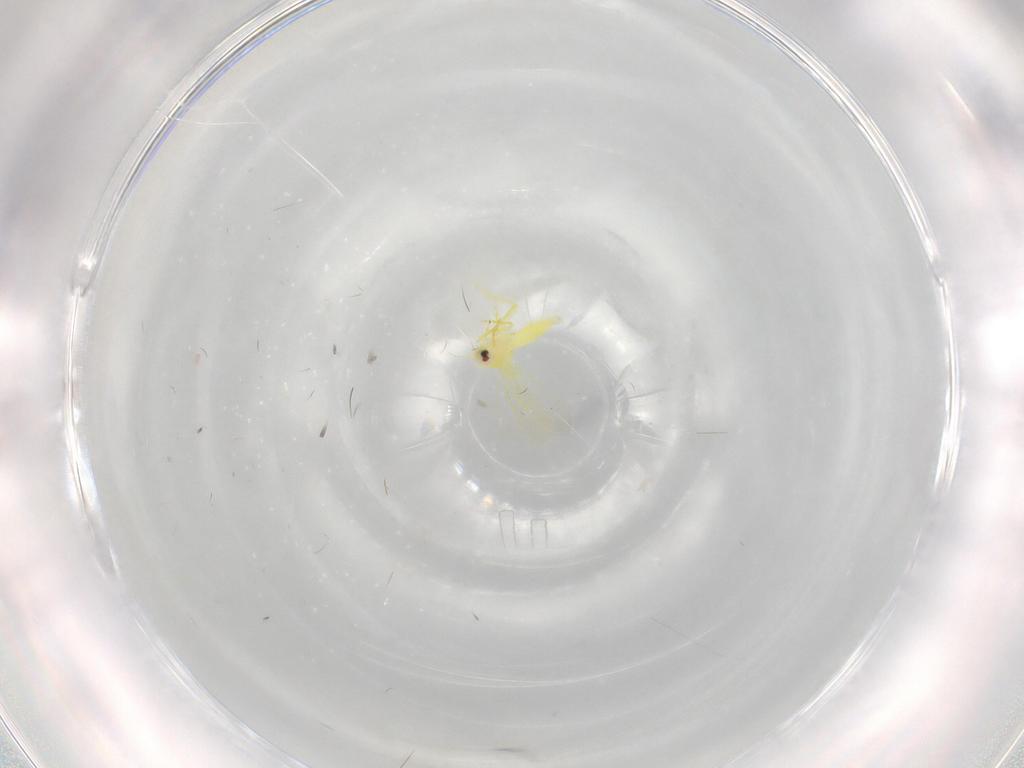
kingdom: Animalia
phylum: Arthropoda
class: Insecta
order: Hemiptera
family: Aleyrodidae
